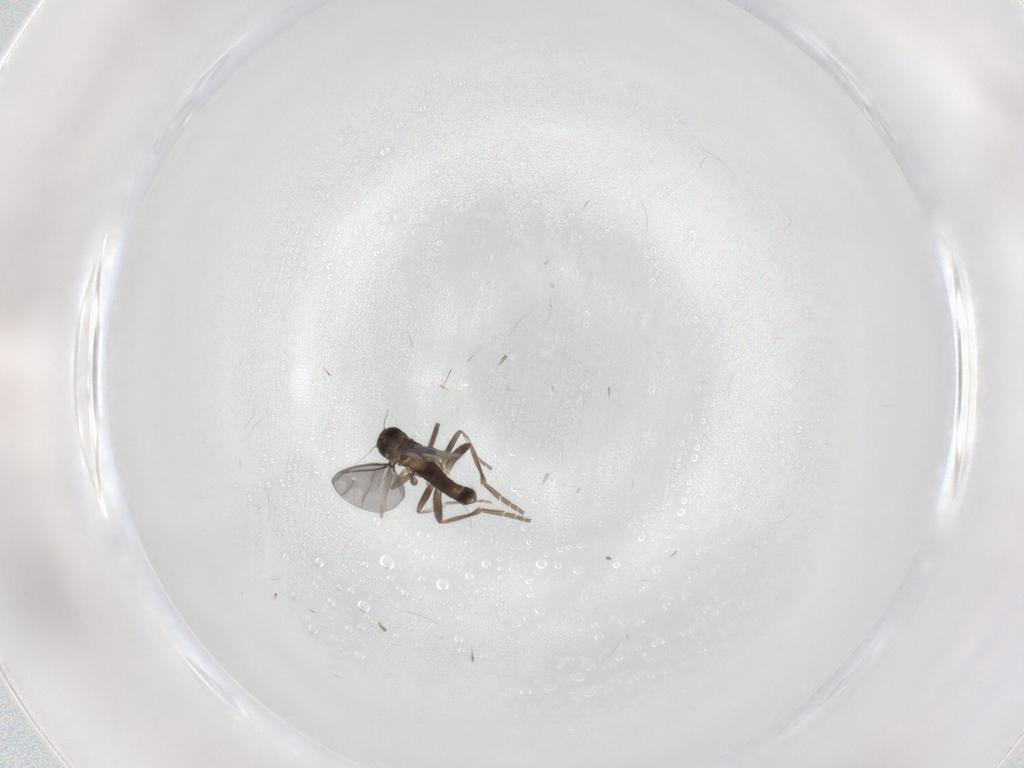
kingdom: Animalia
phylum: Arthropoda
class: Insecta
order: Diptera
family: Ceratopogonidae
